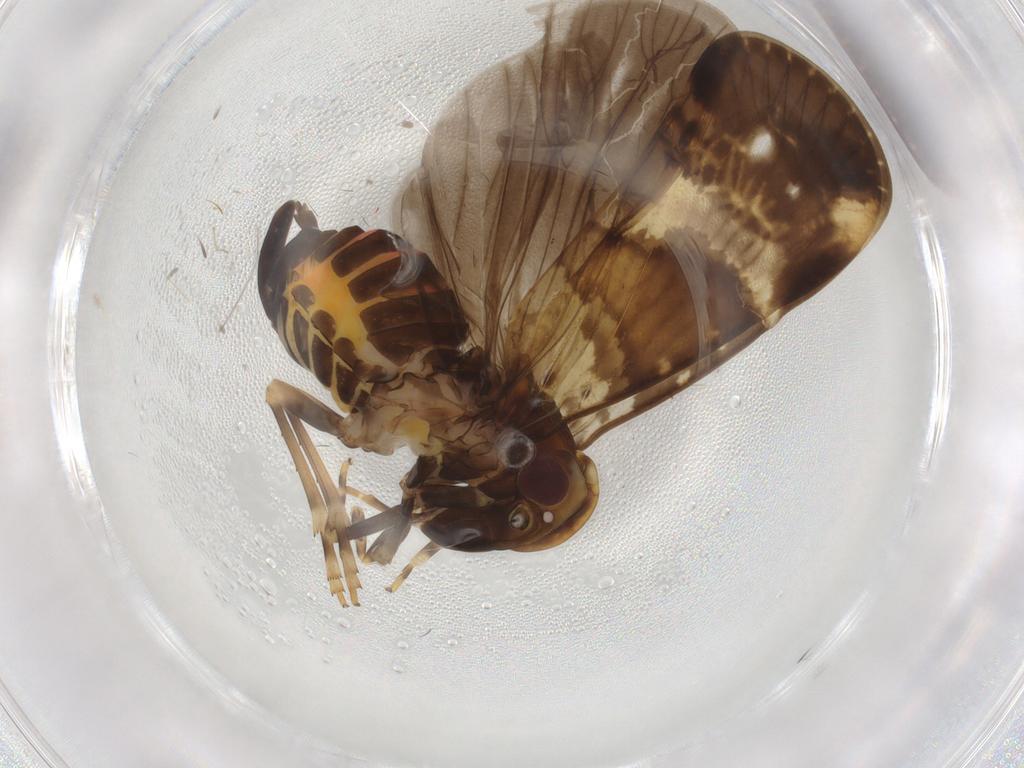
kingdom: Animalia
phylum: Arthropoda
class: Insecta
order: Hemiptera
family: Cixiidae
